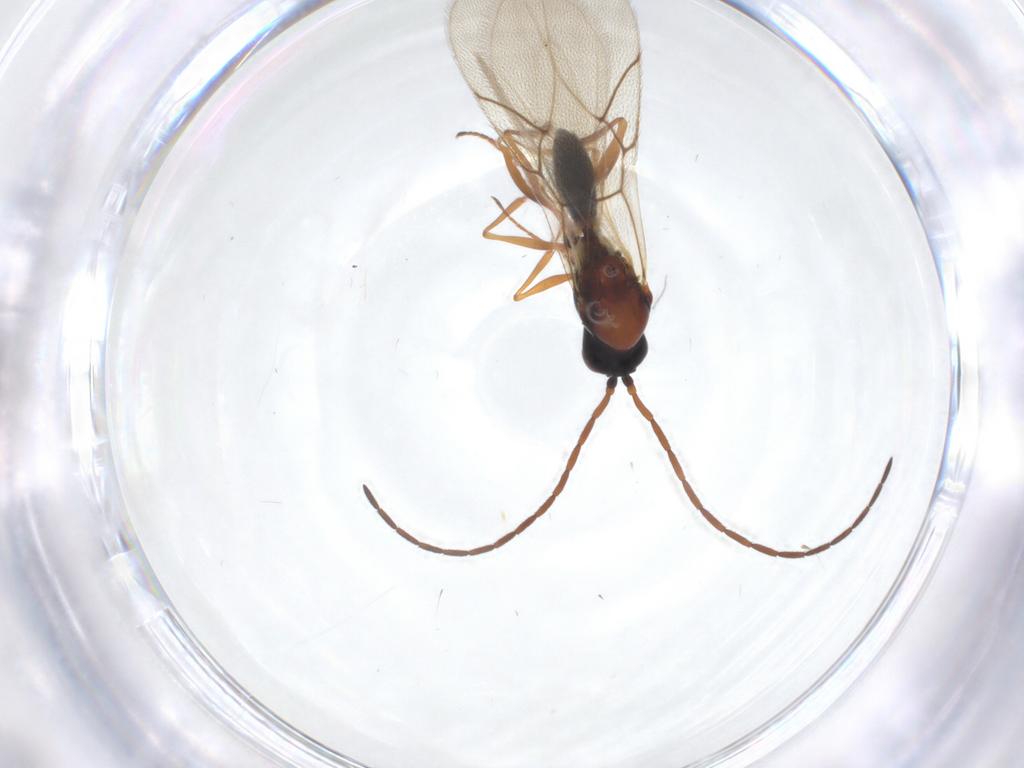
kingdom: Animalia
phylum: Arthropoda
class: Insecta
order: Hymenoptera
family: Figitidae
